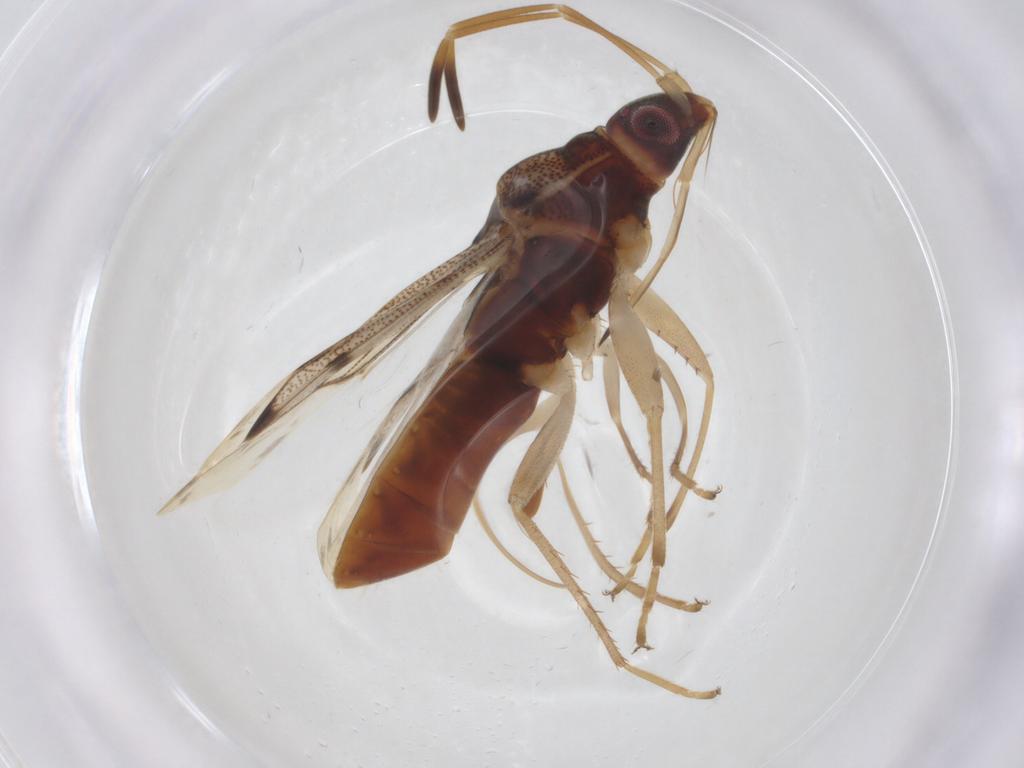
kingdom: Animalia
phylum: Arthropoda
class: Insecta
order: Hemiptera
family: Rhyparochromidae
